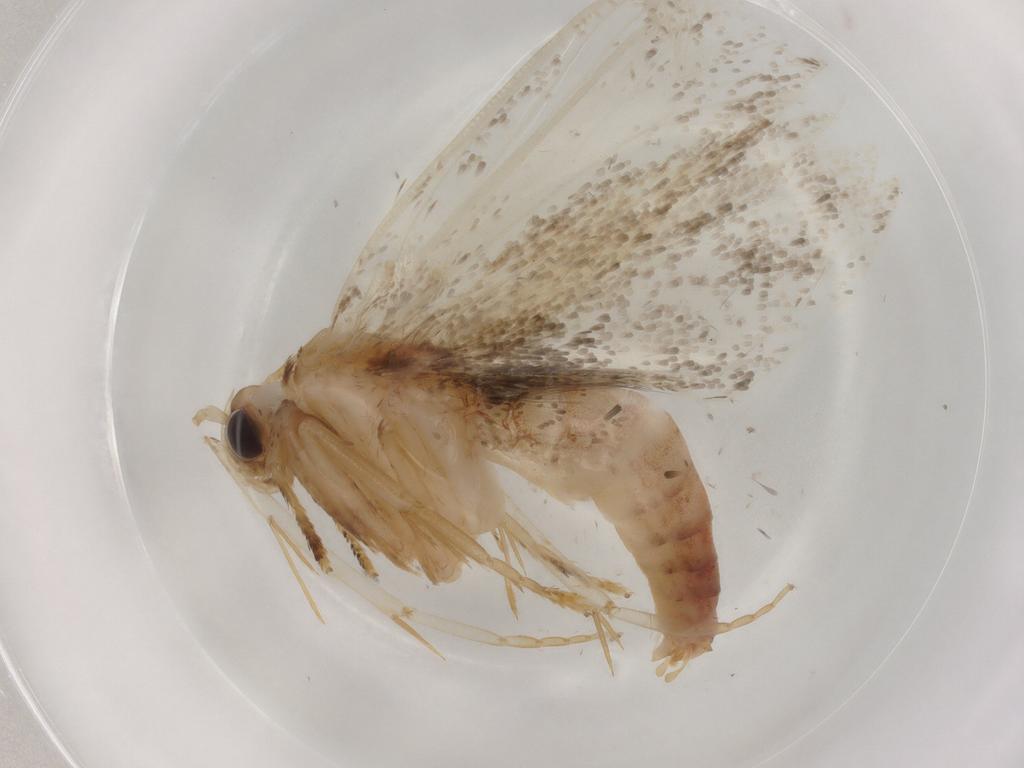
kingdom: Animalia
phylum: Arthropoda
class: Insecta
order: Lepidoptera
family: Tineidae
